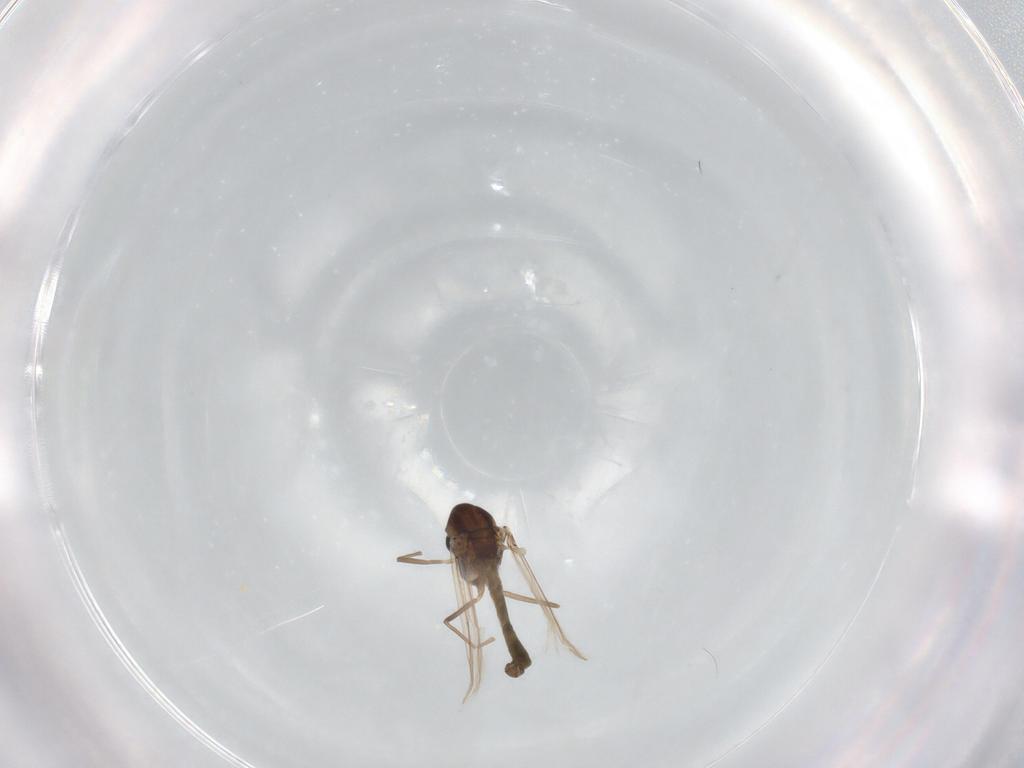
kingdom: Animalia
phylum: Arthropoda
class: Insecta
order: Diptera
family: Chironomidae
